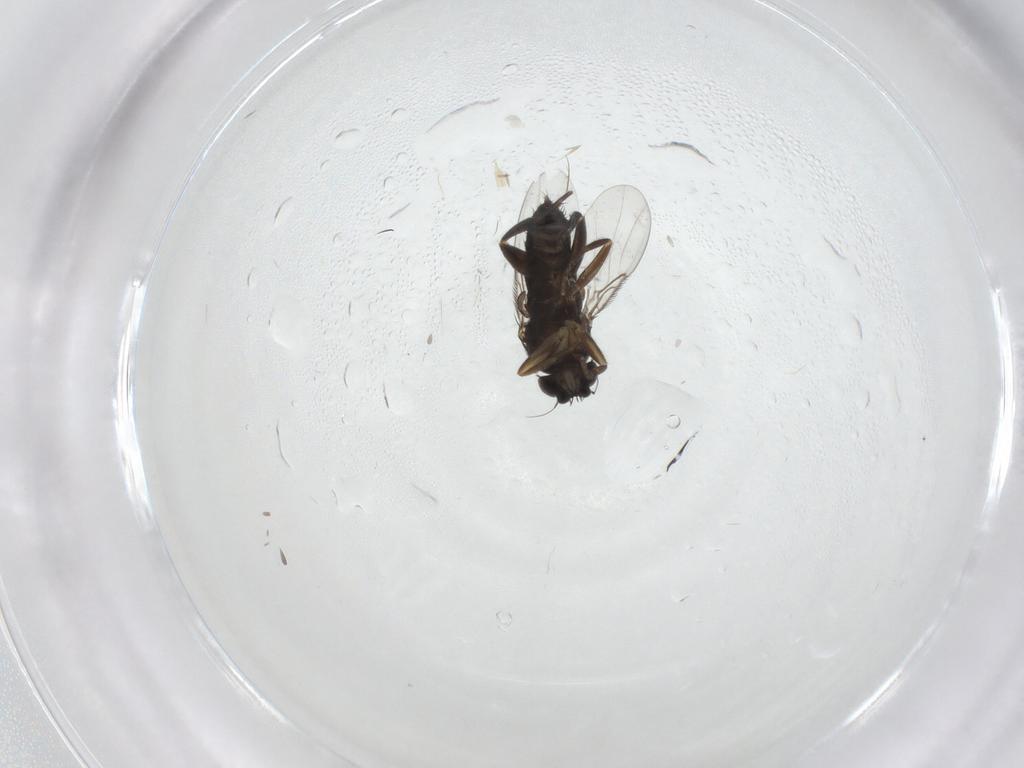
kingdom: Animalia
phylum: Arthropoda
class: Insecta
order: Diptera
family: Phoridae
